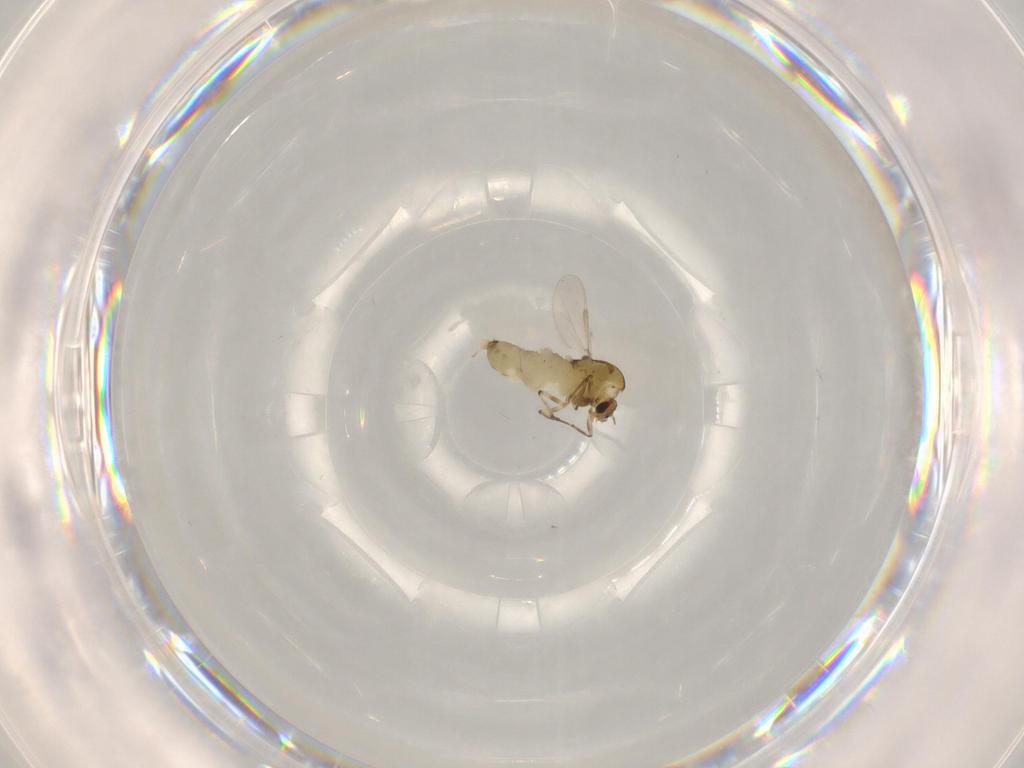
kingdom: Animalia
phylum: Arthropoda
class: Insecta
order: Diptera
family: Chironomidae
